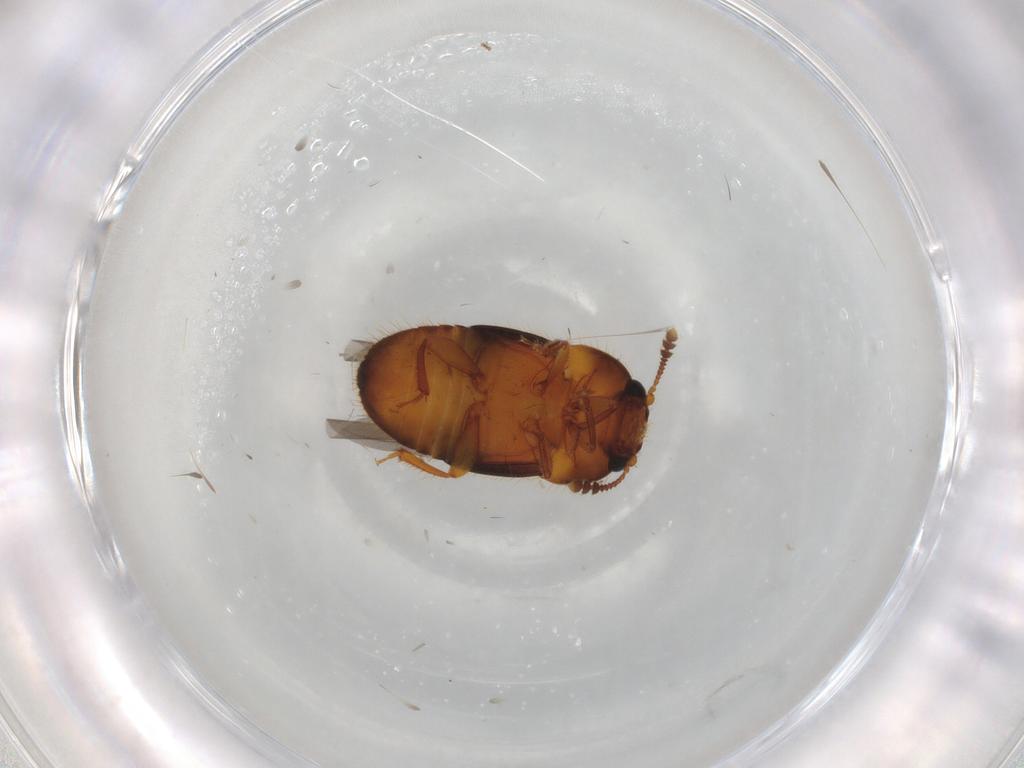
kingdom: Animalia
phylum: Arthropoda
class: Insecta
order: Coleoptera
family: Nitidulidae
